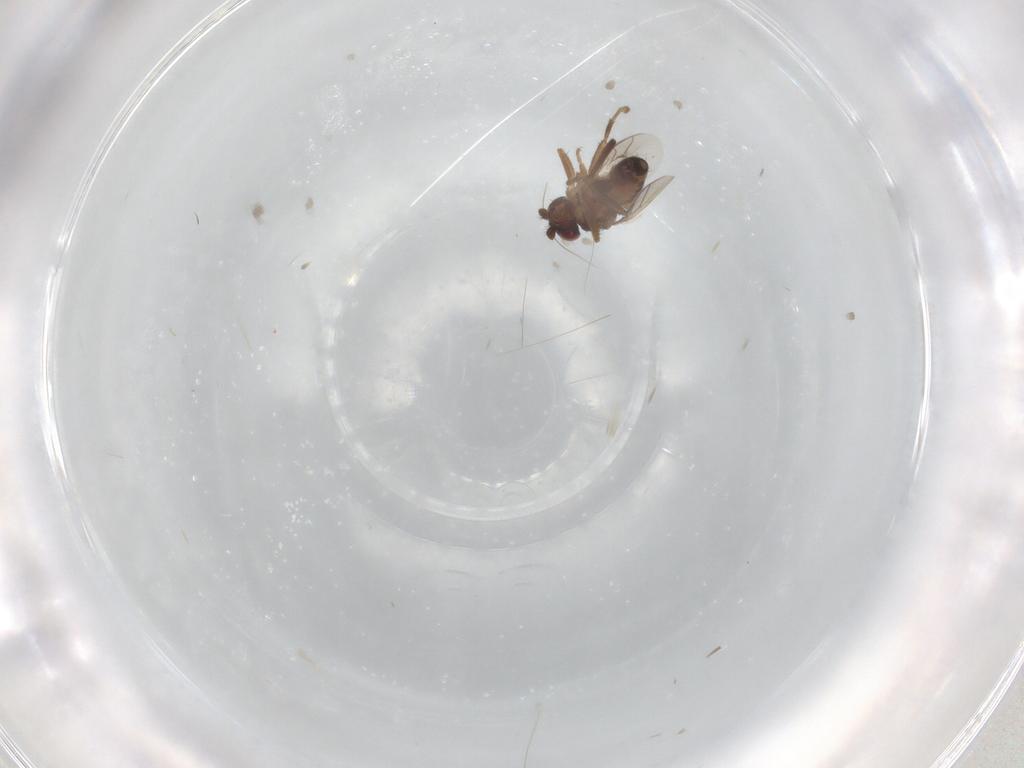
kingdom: Animalia
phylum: Arthropoda
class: Insecta
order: Diptera
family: Sphaeroceridae
